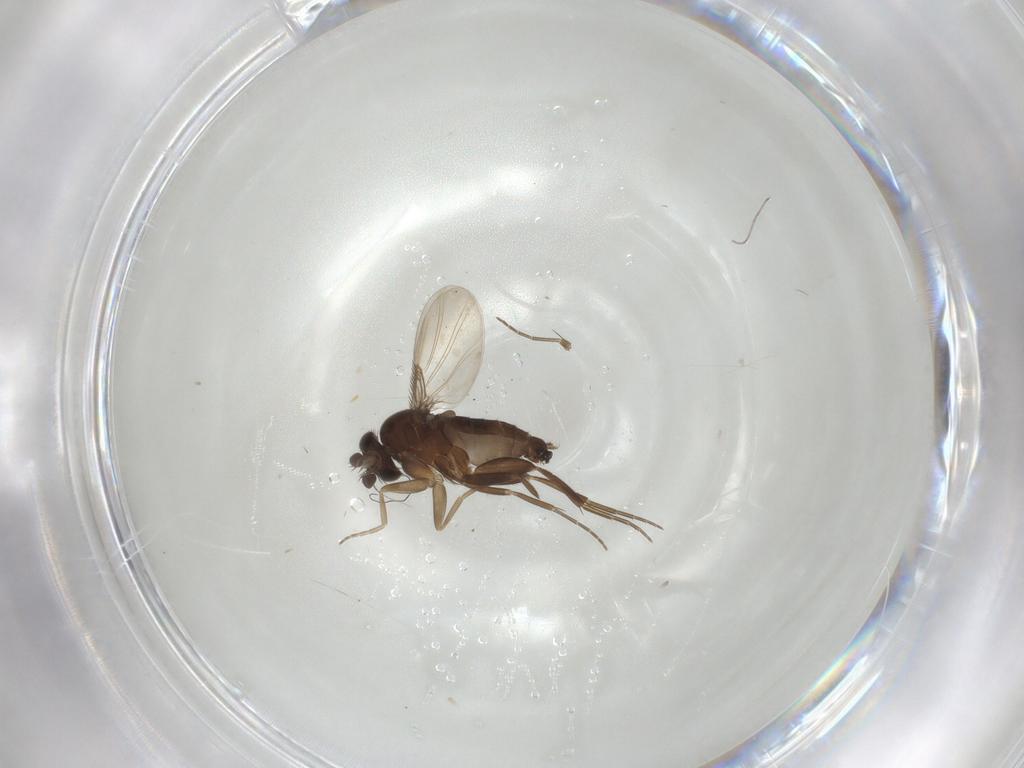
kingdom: Animalia
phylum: Arthropoda
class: Insecta
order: Diptera
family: Phoridae
